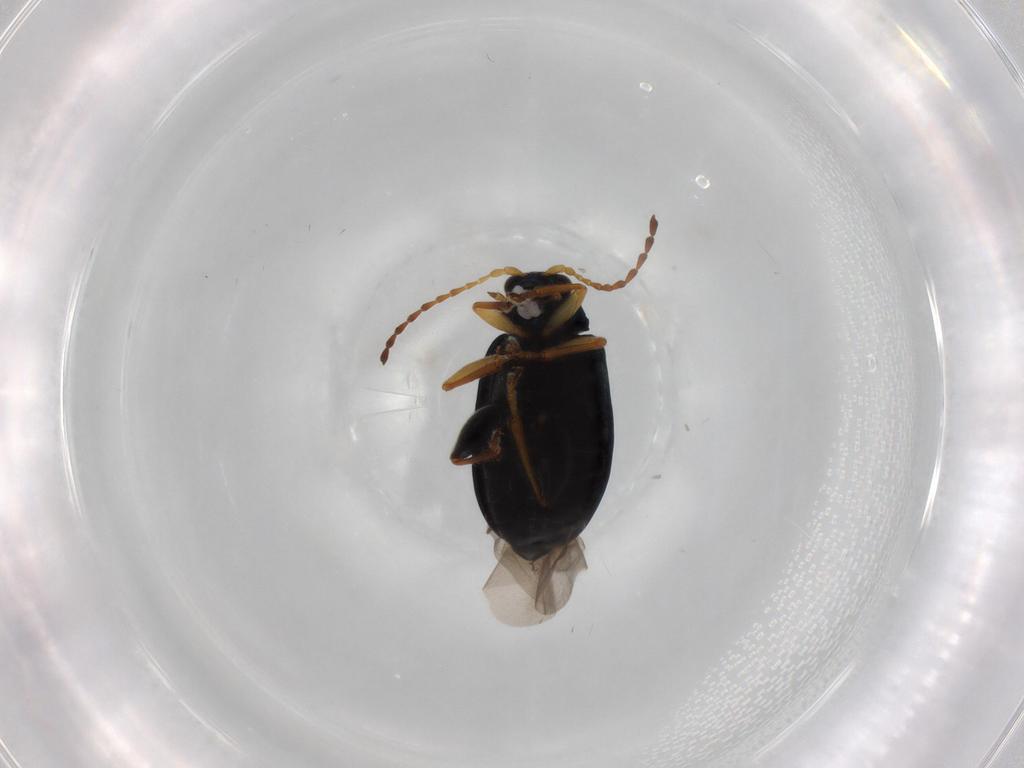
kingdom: Animalia
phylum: Arthropoda
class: Insecta
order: Coleoptera
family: Chrysomelidae
